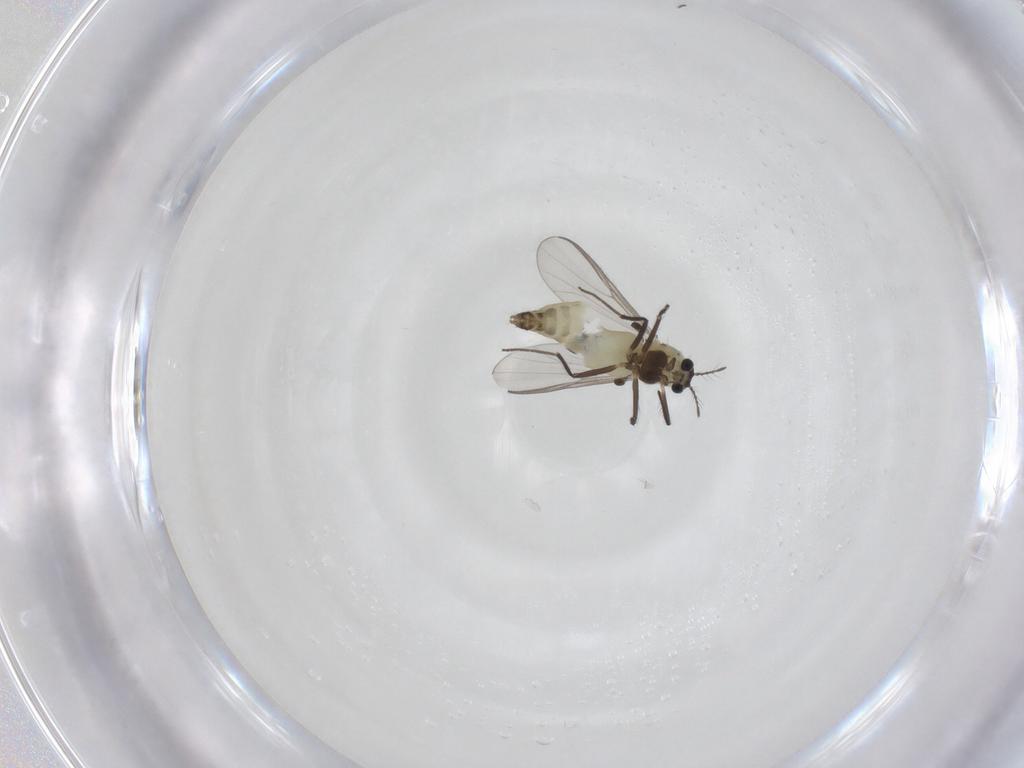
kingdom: Animalia
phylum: Arthropoda
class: Insecta
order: Diptera
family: Chironomidae
